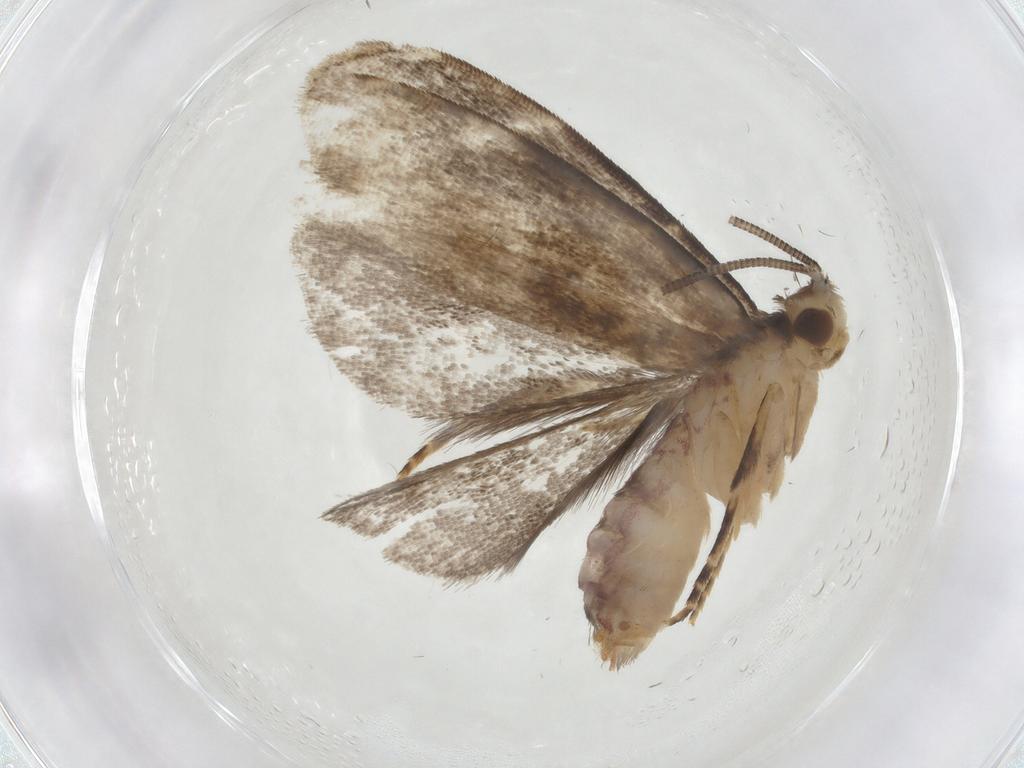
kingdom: Animalia
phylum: Arthropoda
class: Insecta
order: Lepidoptera
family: Dryadaulidae
